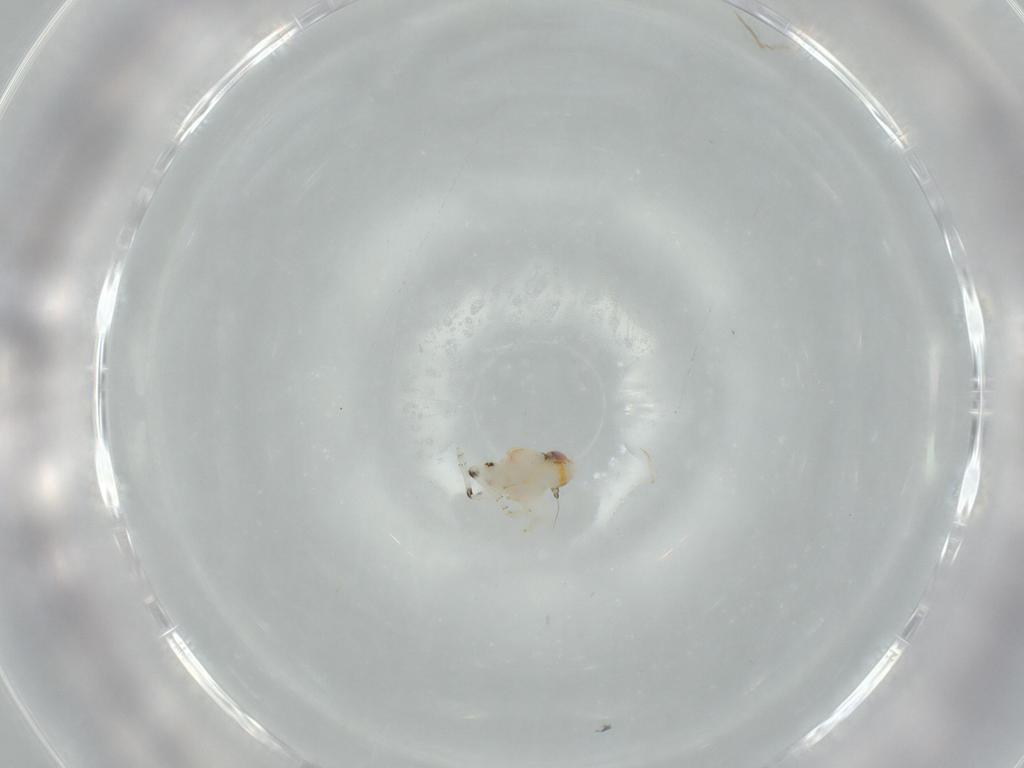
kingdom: Animalia
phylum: Arthropoda
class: Insecta
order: Hemiptera
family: Nogodinidae
